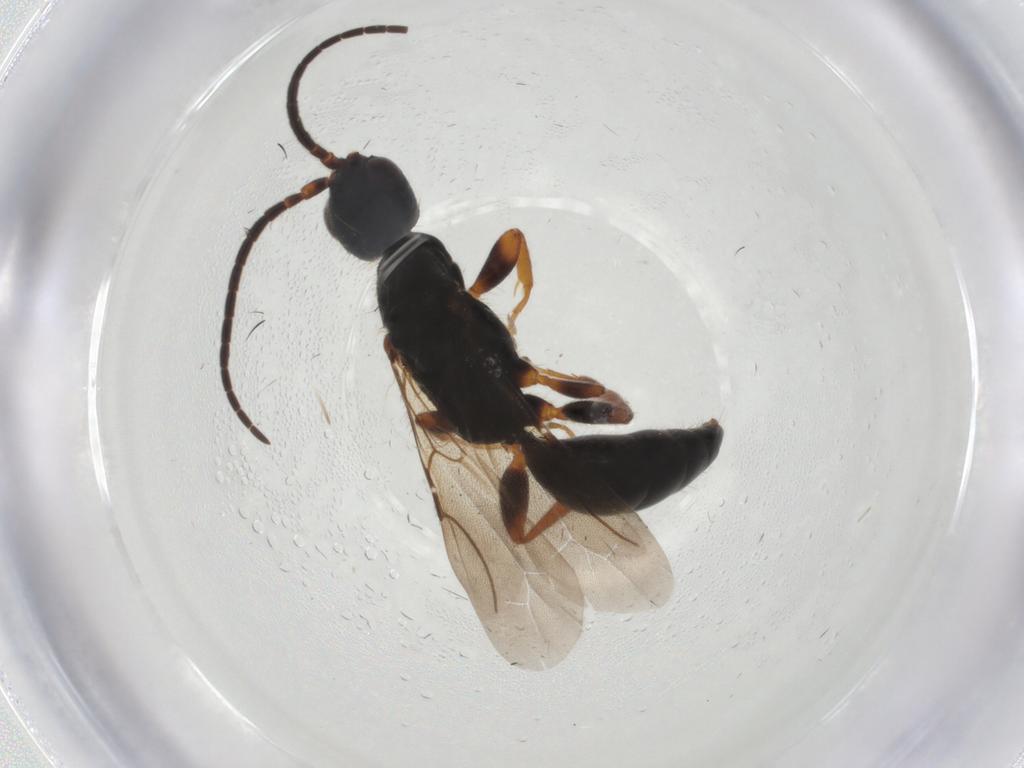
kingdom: Animalia
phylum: Arthropoda
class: Insecta
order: Hymenoptera
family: Bethylidae
